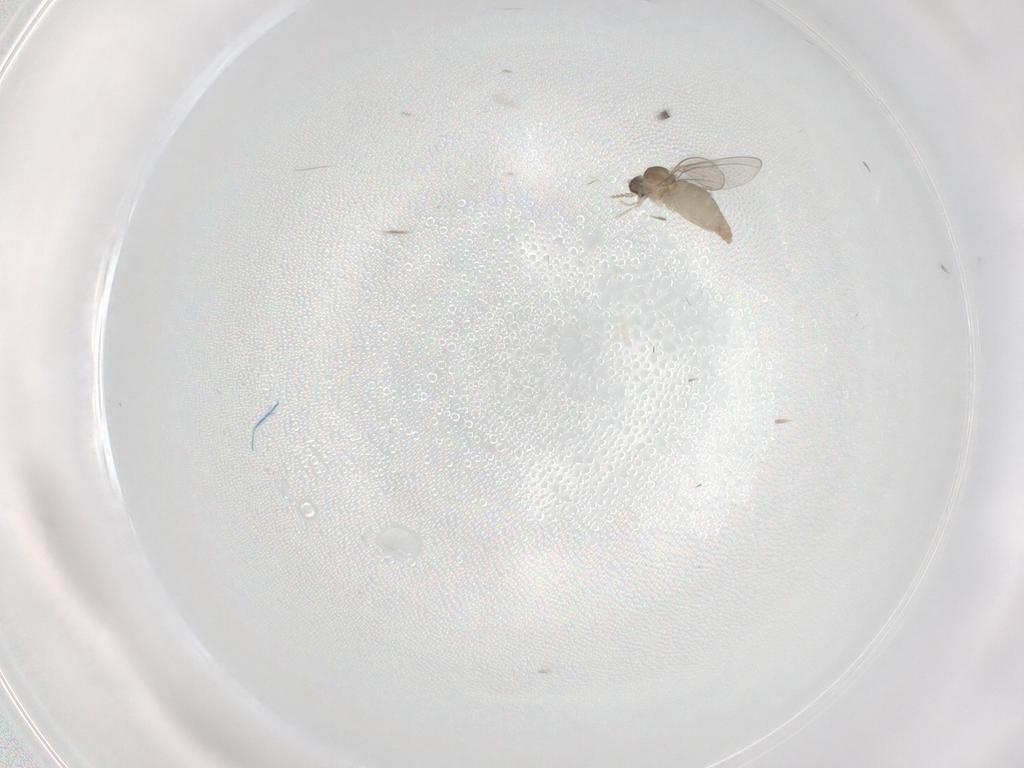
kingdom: Animalia
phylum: Arthropoda
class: Insecta
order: Diptera
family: Cecidomyiidae
